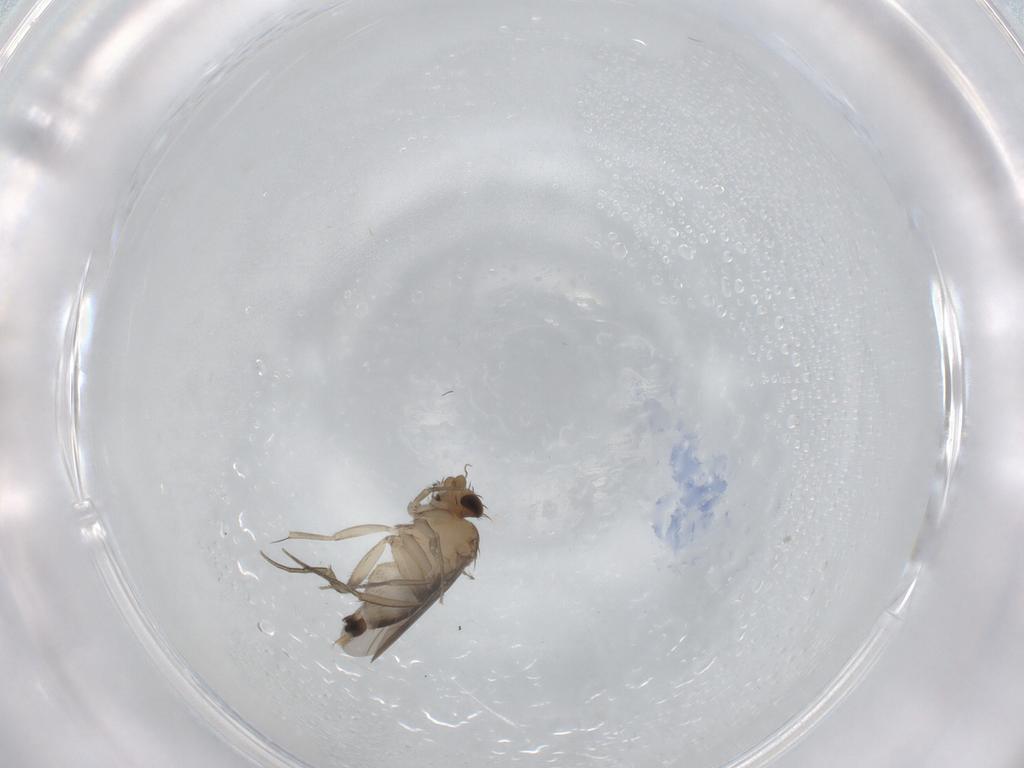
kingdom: Animalia
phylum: Arthropoda
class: Insecta
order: Diptera
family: Phoridae
